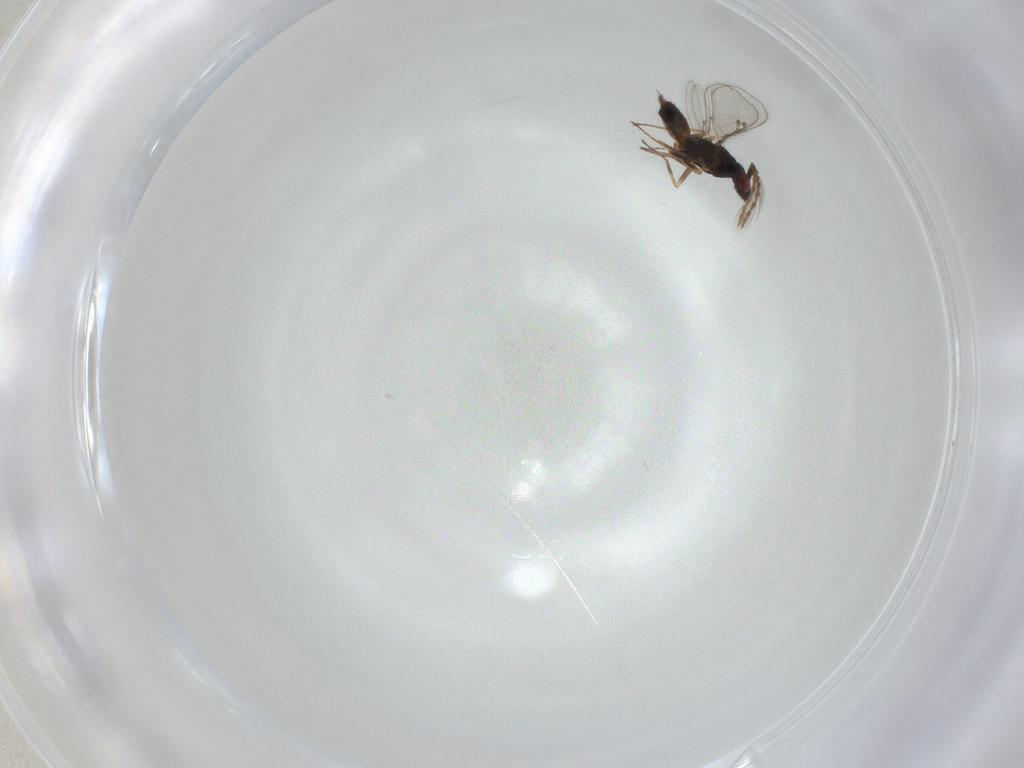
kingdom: Animalia
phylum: Arthropoda
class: Insecta
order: Hymenoptera
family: Eulophidae
